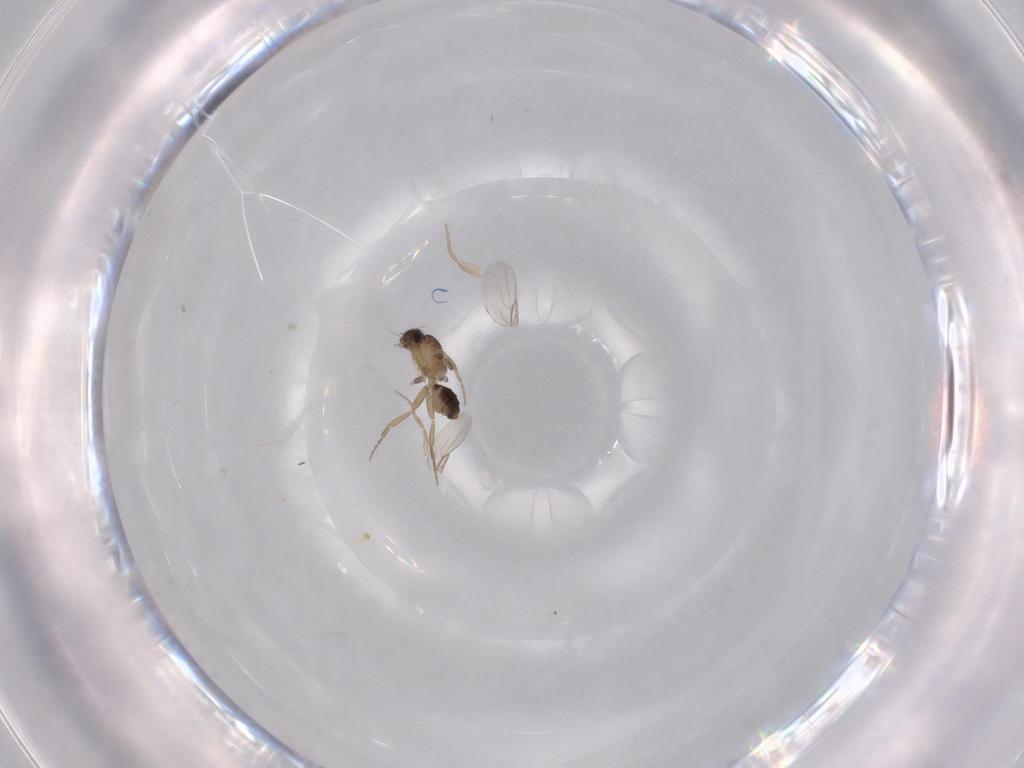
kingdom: Animalia
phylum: Arthropoda
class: Insecta
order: Diptera
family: Phoridae
